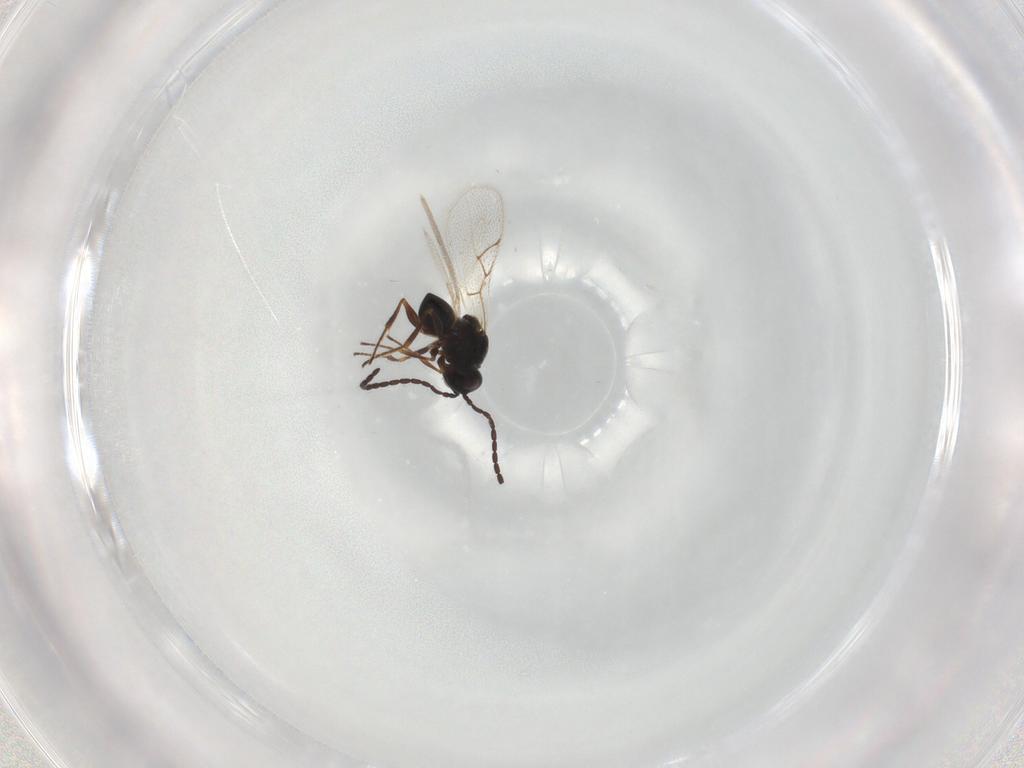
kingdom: Animalia
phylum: Arthropoda
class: Insecta
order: Hymenoptera
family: Figitidae
